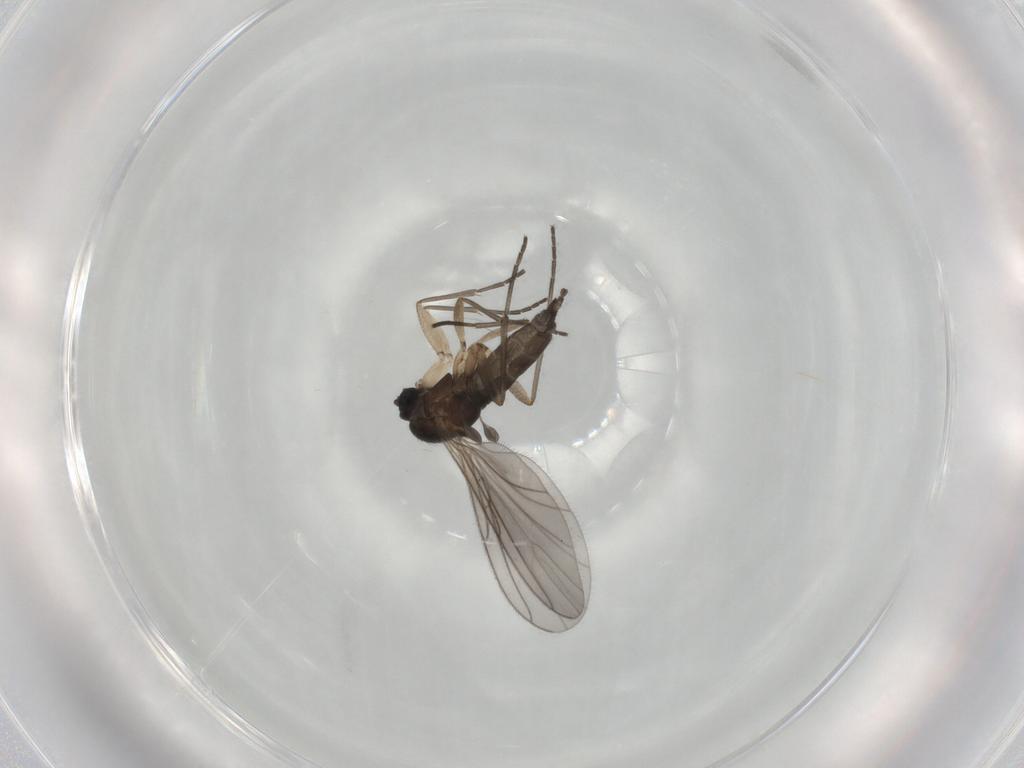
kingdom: Animalia
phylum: Arthropoda
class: Insecta
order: Diptera
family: Sciaridae
